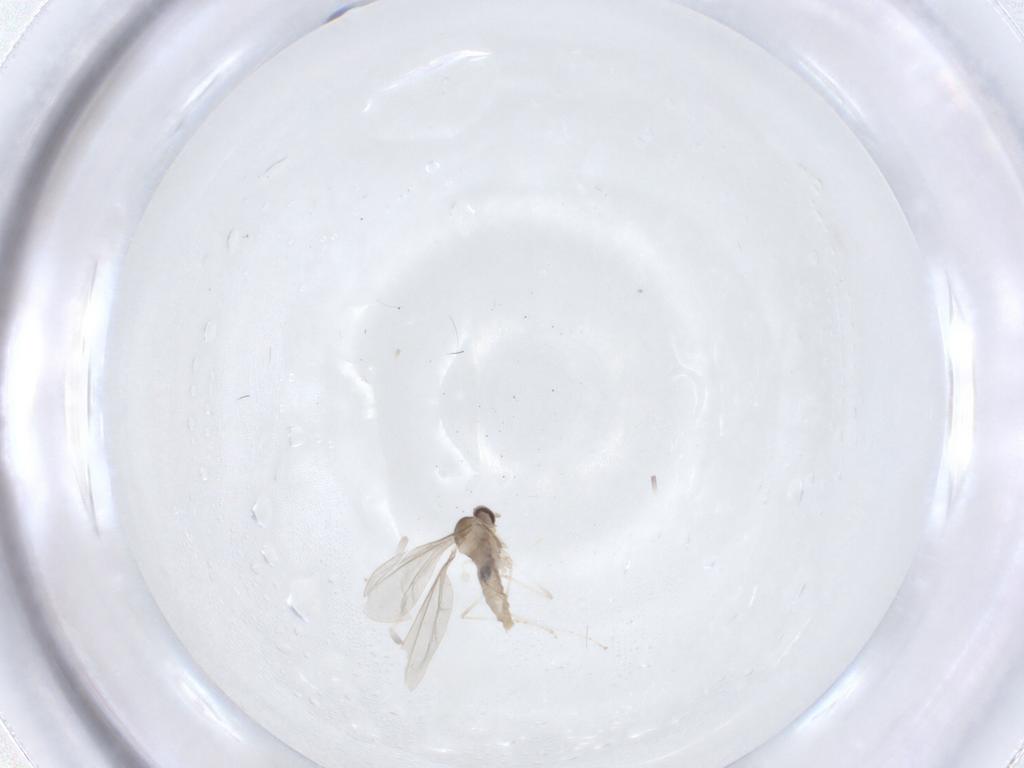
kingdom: Animalia
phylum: Arthropoda
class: Insecta
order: Diptera
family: Cecidomyiidae
